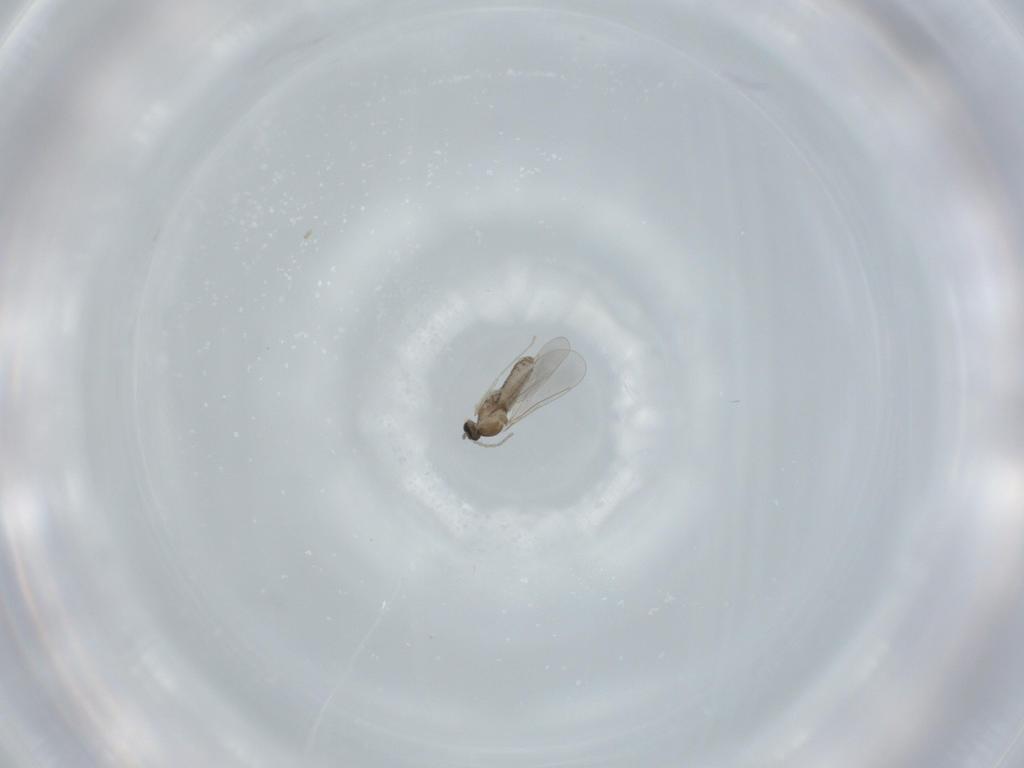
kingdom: Animalia
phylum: Arthropoda
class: Insecta
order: Diptera
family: Cecidomyiidae
